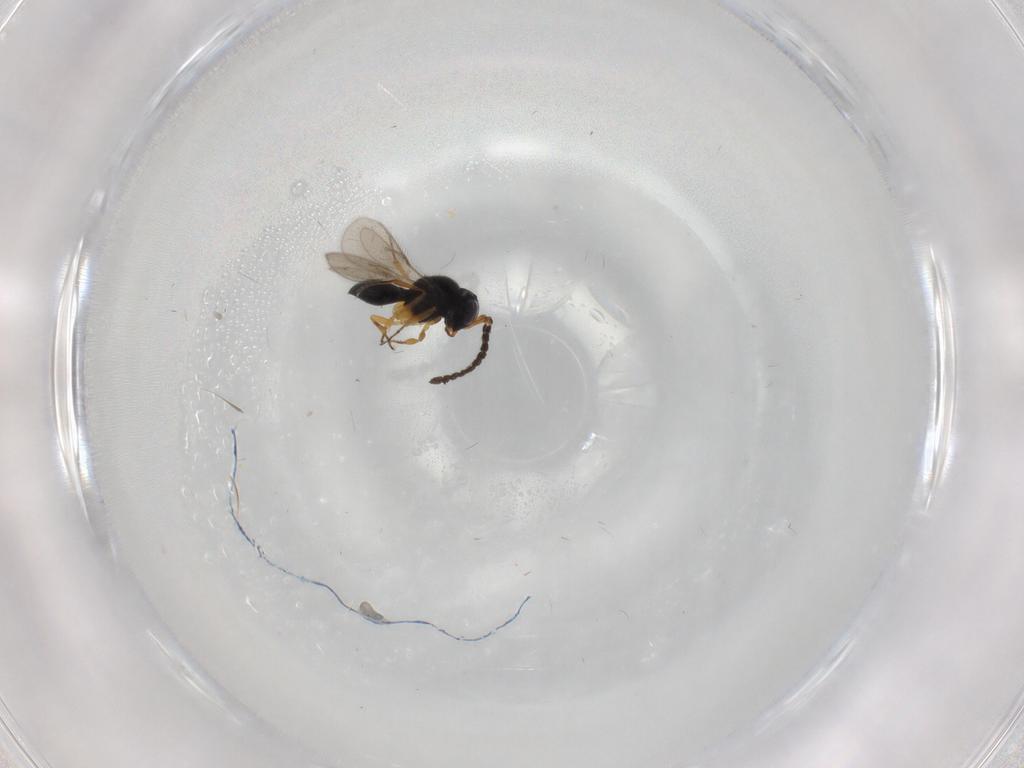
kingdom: Animalia
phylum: Arthropoda
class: Insecta
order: Hymenoptera
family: Scelionidae
